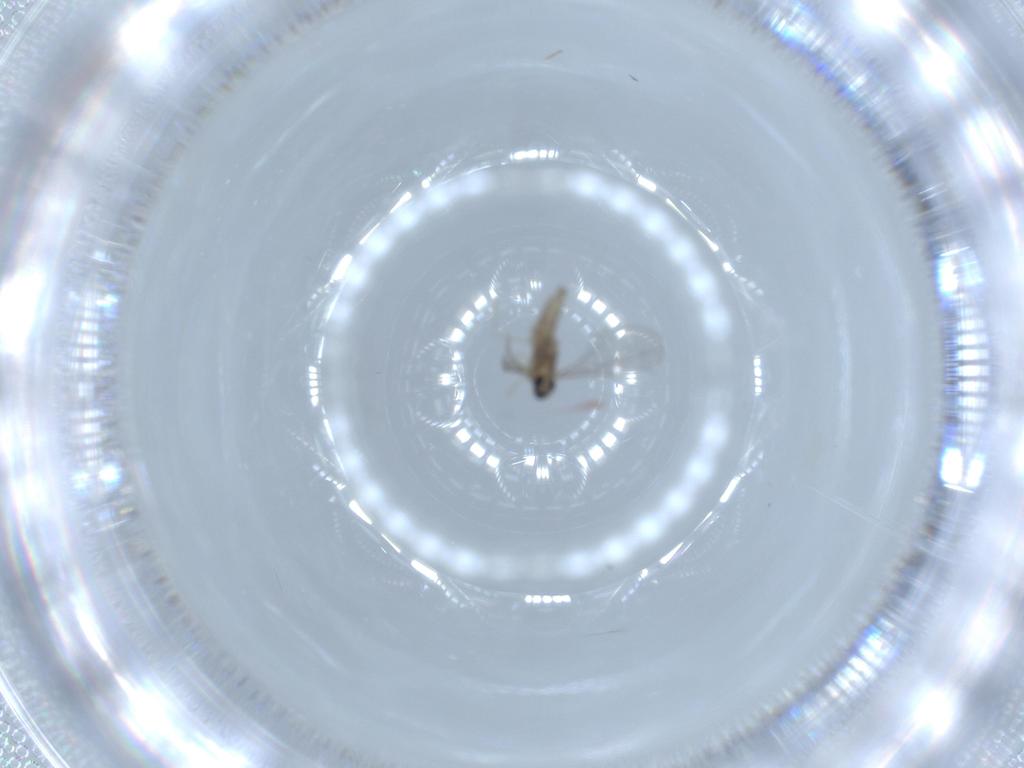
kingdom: Animalia
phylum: Arthropoda
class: Insecta
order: Diptera
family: Cecidomyiidae
